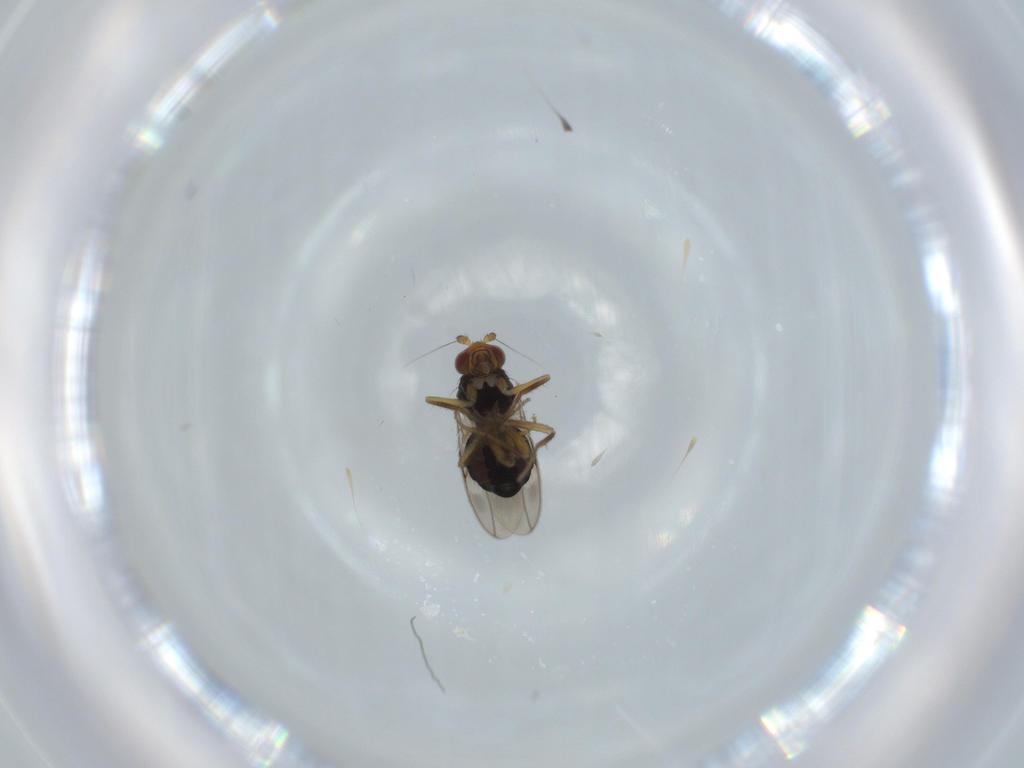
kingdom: Animalia
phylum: Arthropoda
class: Insecta
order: Diptera
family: Sphaeroceridae
